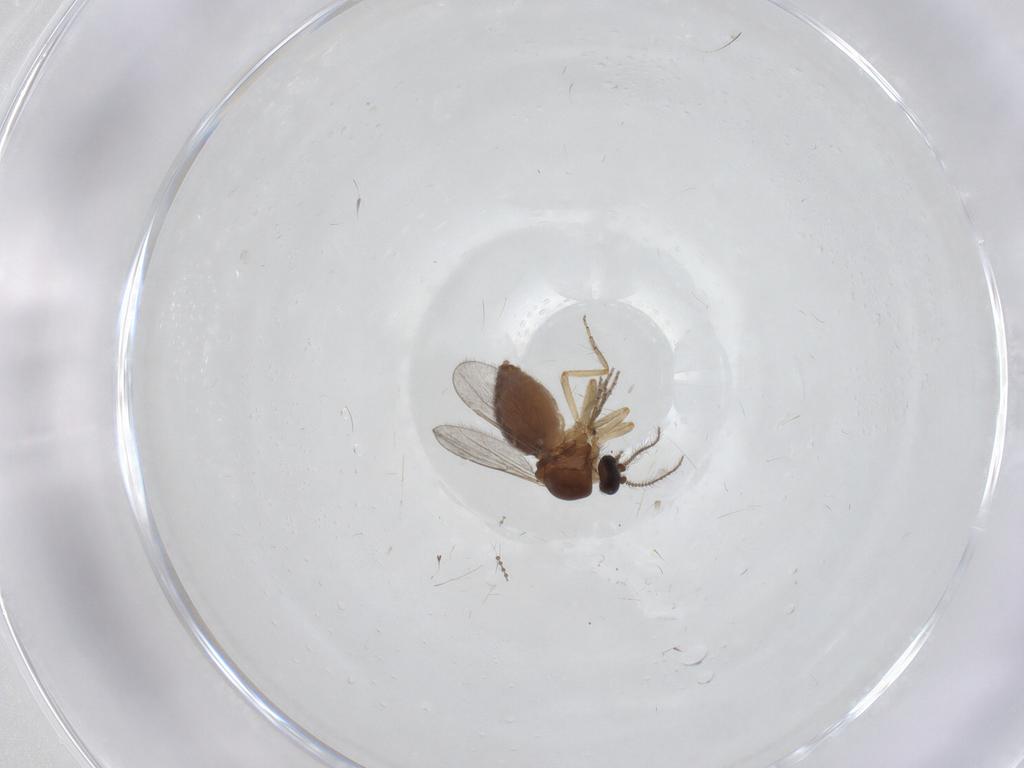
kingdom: Animalia
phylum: Arthropoda
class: Insecta
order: Diptera
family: Ceratopogonidae
